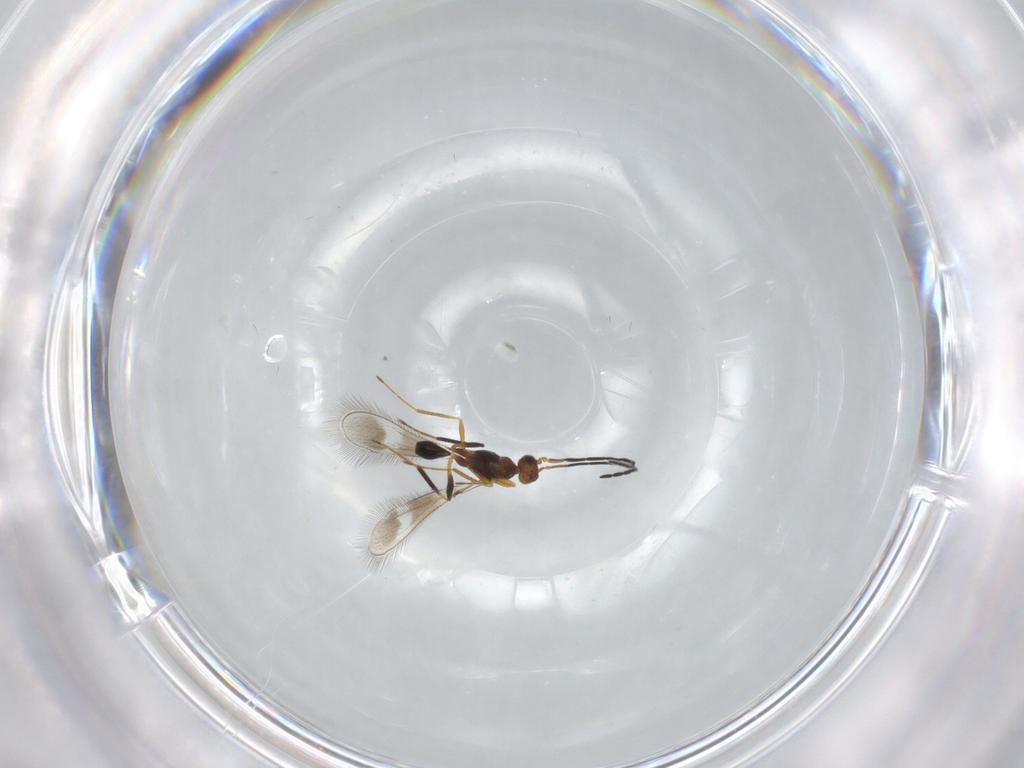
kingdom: Animalia
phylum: Arthropoda
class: Insecta
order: Hymenoptera
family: Mymaridae
